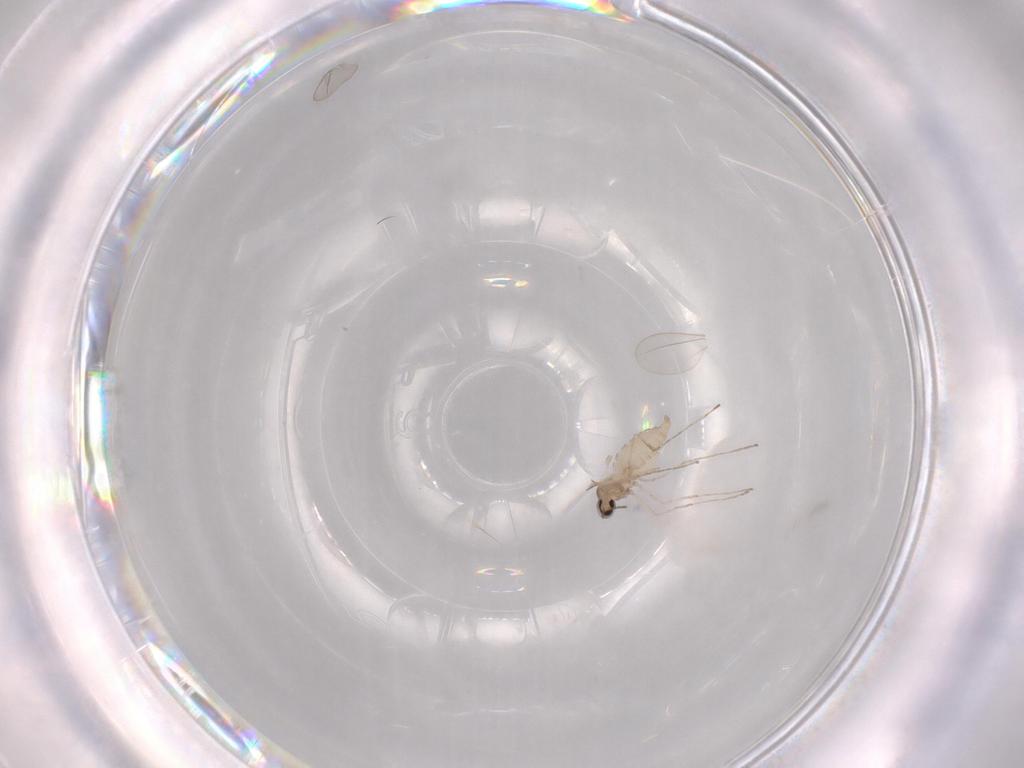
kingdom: Animalia
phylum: Arthropoda
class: Insecta
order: Diptera
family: Cecidomyiidae
